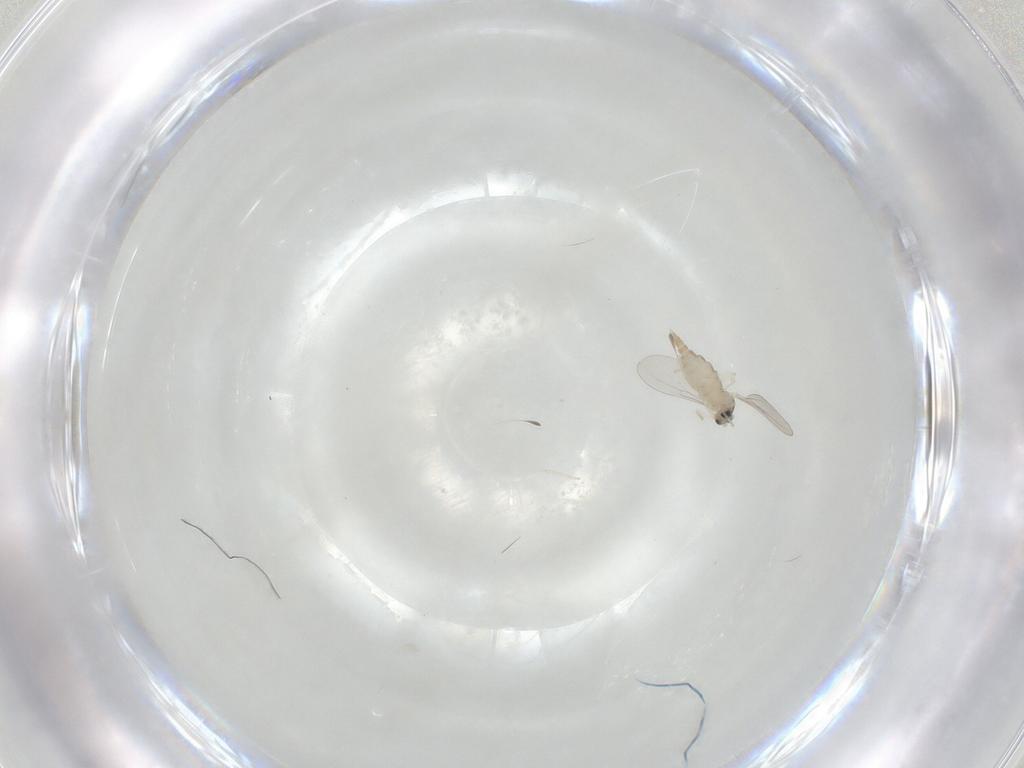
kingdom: Animalia
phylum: Arthropoda
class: Insecta
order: Diptera
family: Cecidomyiidae
